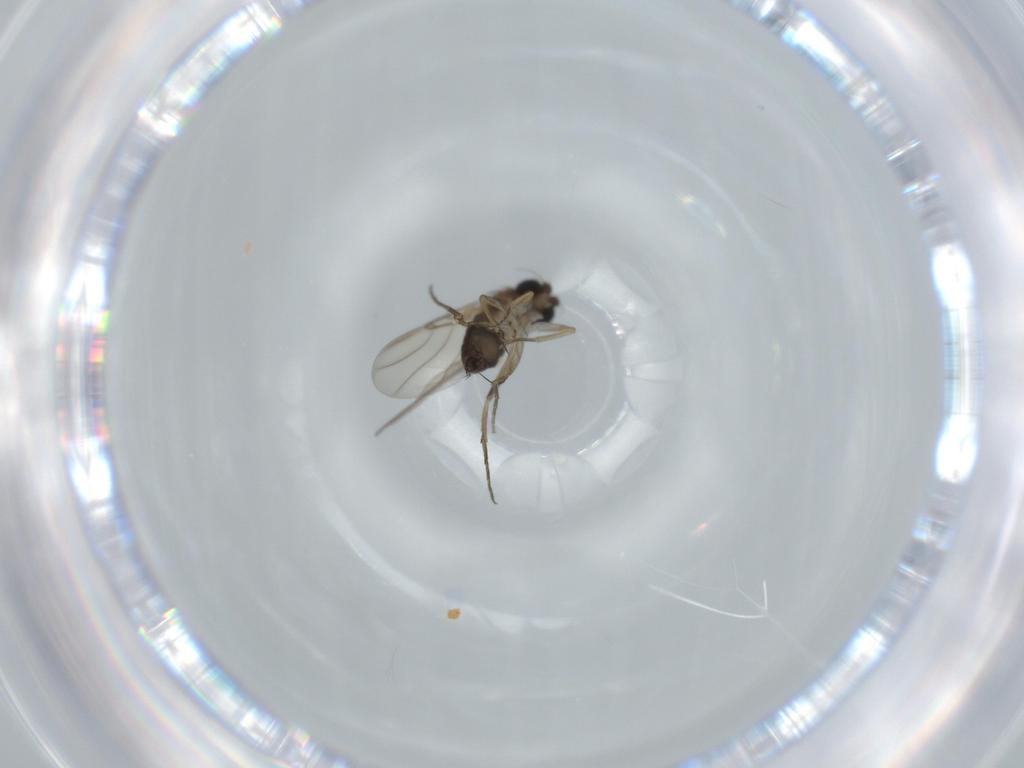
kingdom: Animalia
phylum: Arthropoda
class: Insecta
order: Diptera
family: Phoridae
